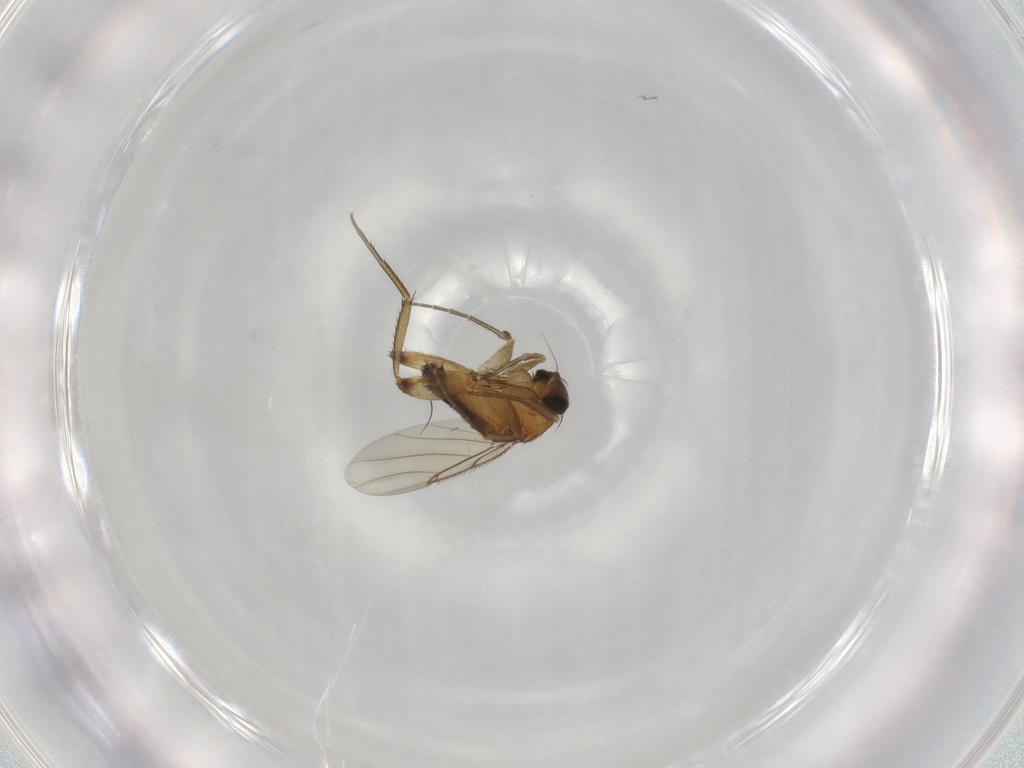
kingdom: Animalia
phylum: Arthropoda
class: Insecta
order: Diptera
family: Phoridae
